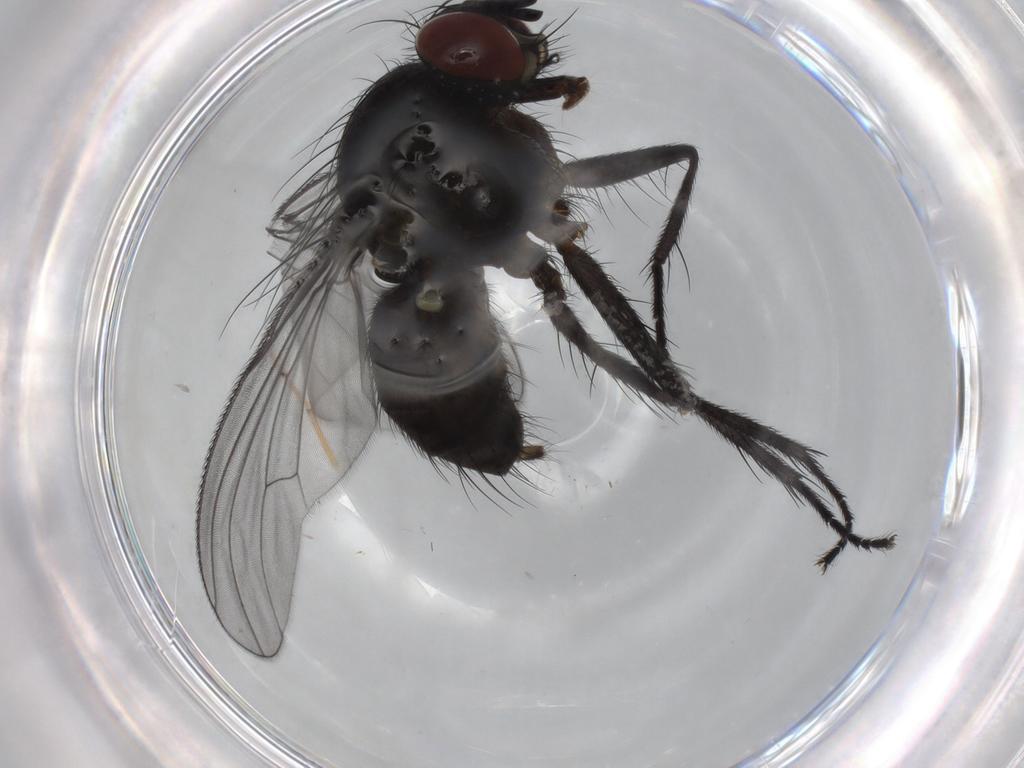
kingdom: Animalia
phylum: Arthropoda
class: Insecta
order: Diptera
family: Muscidae
